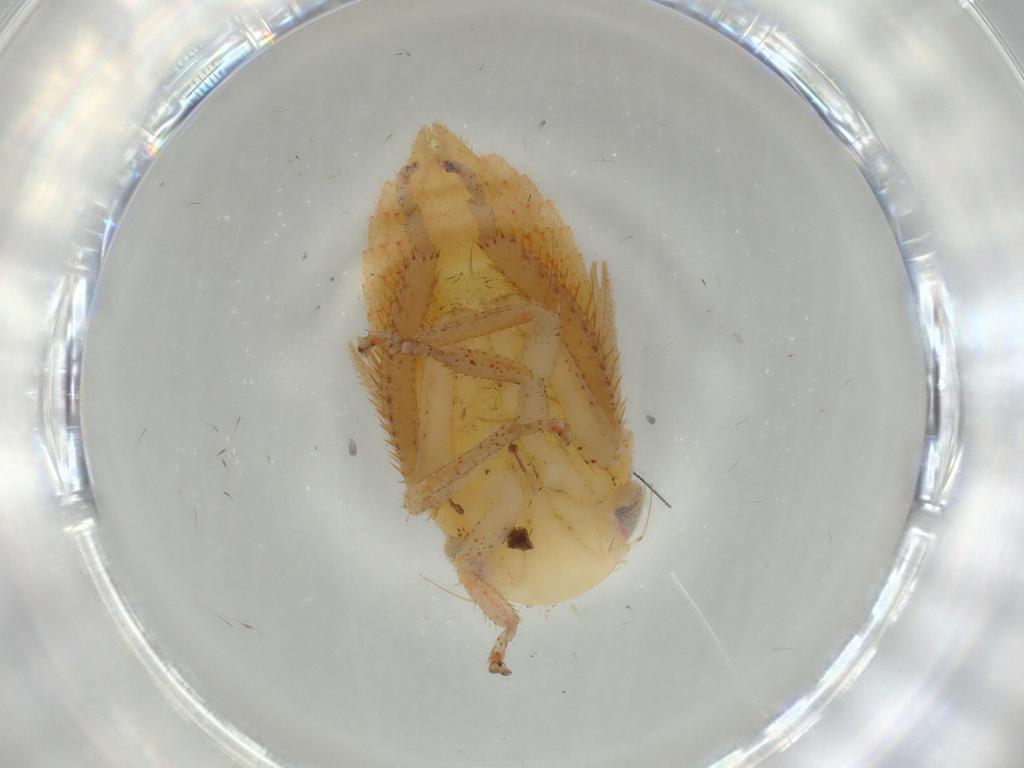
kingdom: Animalia
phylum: Arthropoda
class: Insecta
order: Hemiptera
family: Cicadellidae
